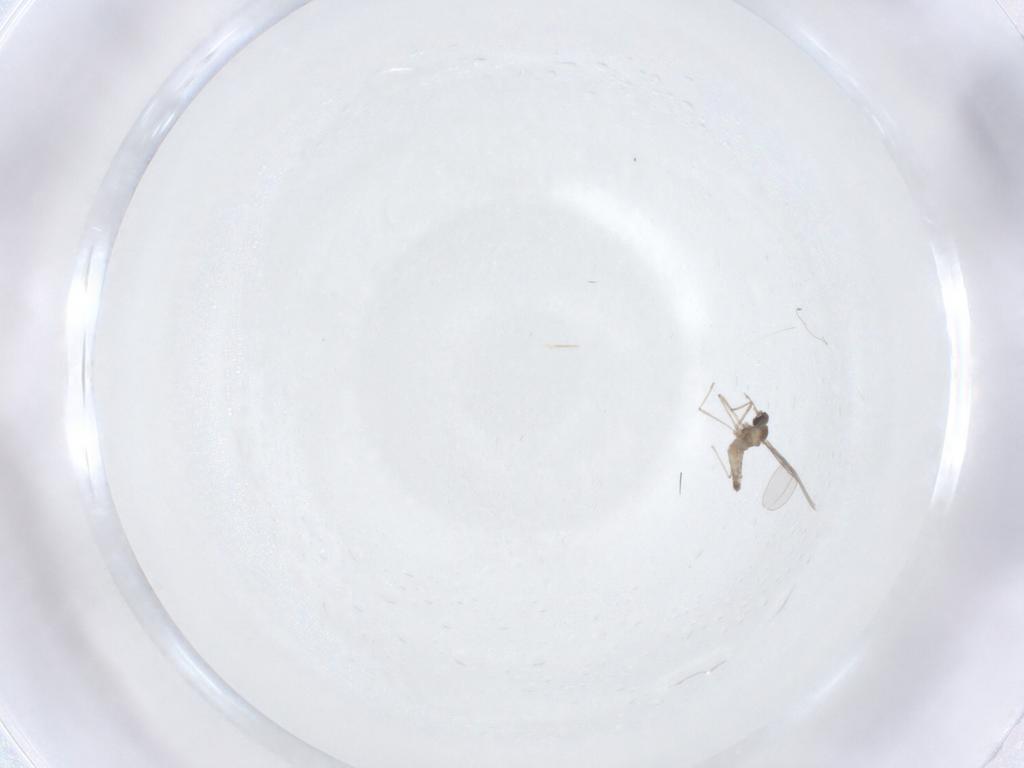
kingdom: Animalia
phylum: Arthropoda
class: Insecta
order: Diptera
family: Cecidomyiidae
